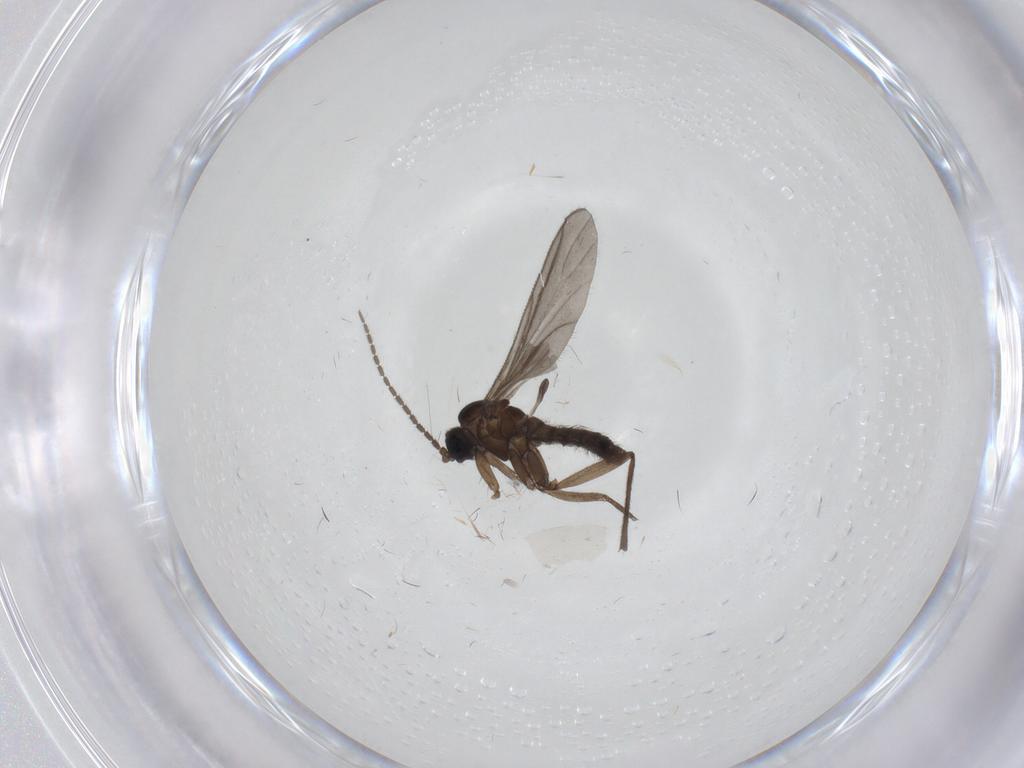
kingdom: Animalia
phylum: Arthropoda
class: Insecta
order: Diptera
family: Sciaridae
